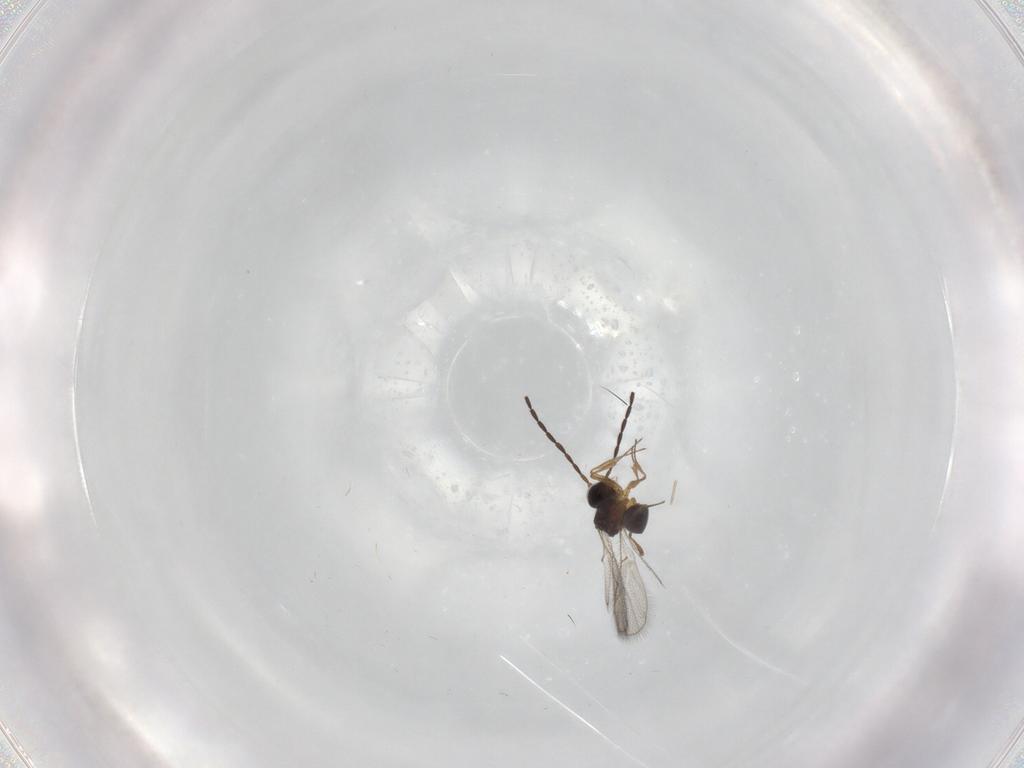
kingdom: Animalia
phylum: Arthropoda
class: Insecta
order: Hymenoptera
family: Figitidae
